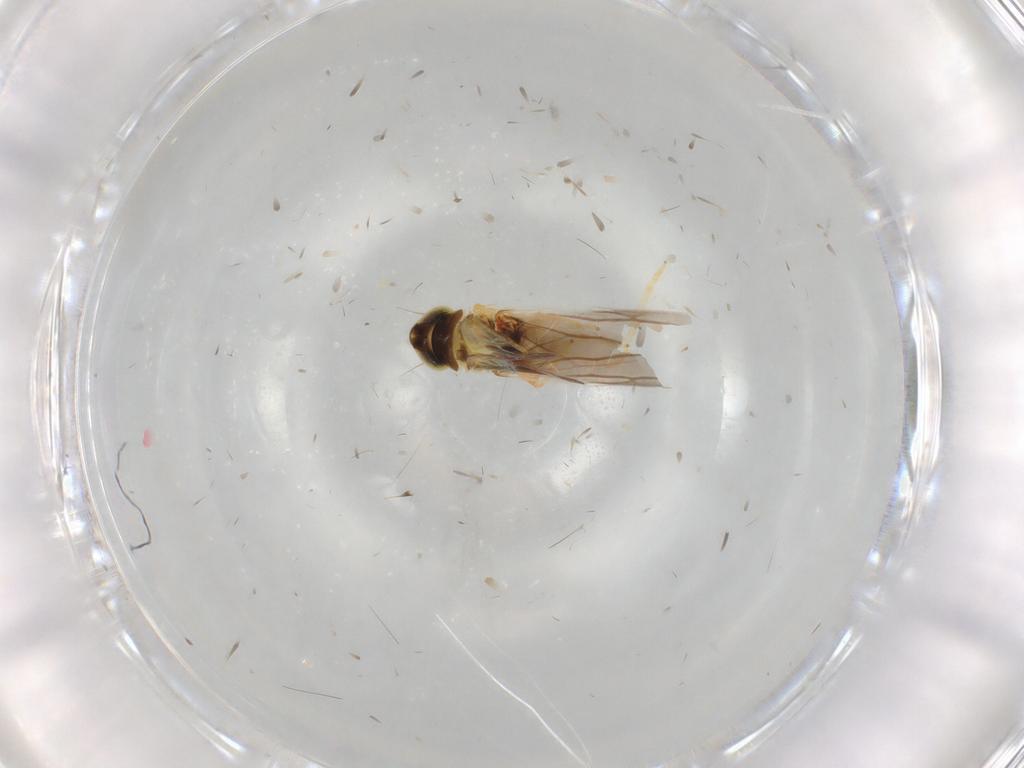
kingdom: Animalia
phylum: Arthropoda
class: Insecta
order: Hemiptera
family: Cicadellidae
